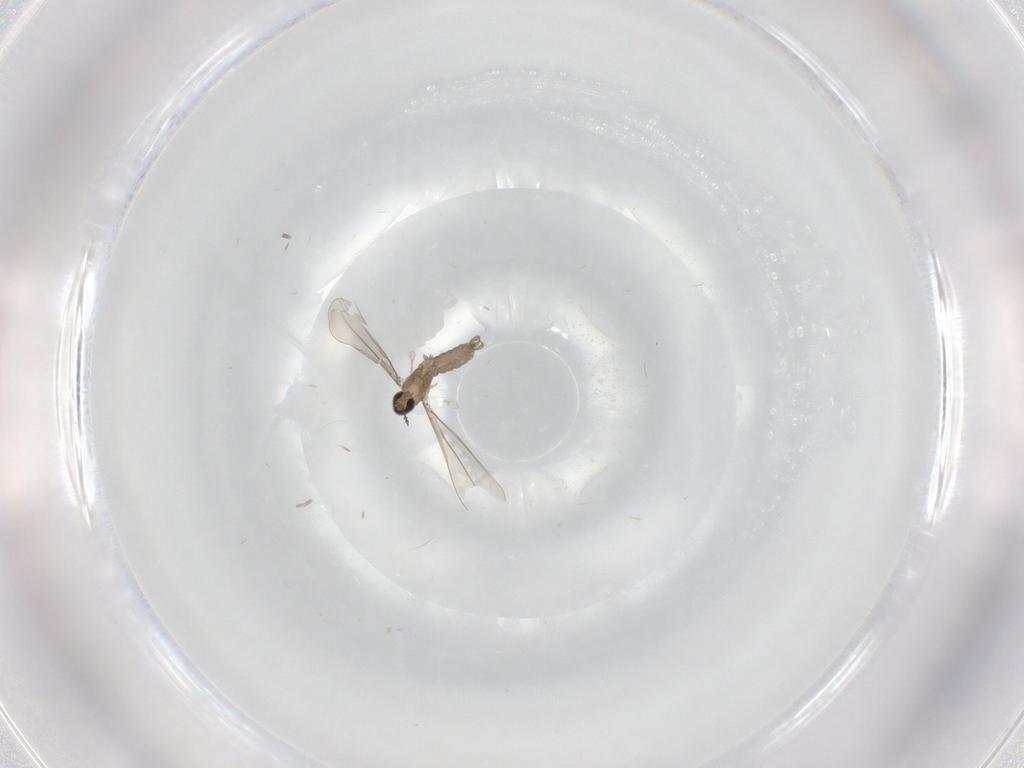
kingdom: Animalia
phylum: Arthropoda
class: Insecta
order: Diptera
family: Cecidomyiidae
